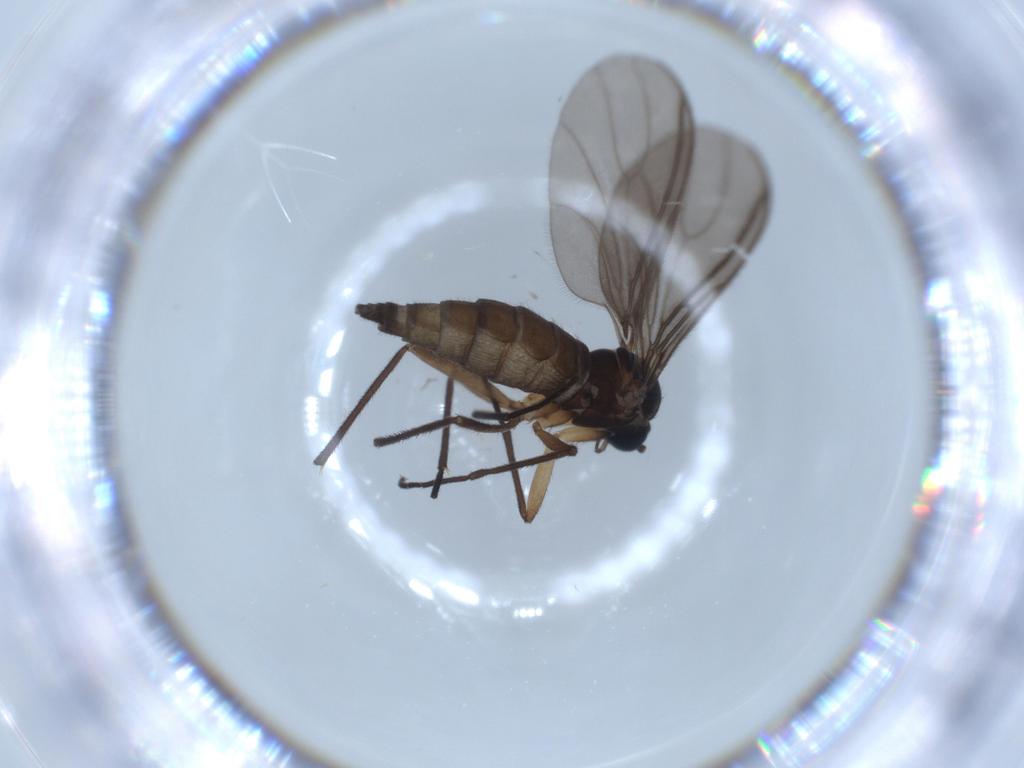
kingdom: Animalia
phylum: Arthropoda
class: Insecta
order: Diptera
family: Sciaridae
